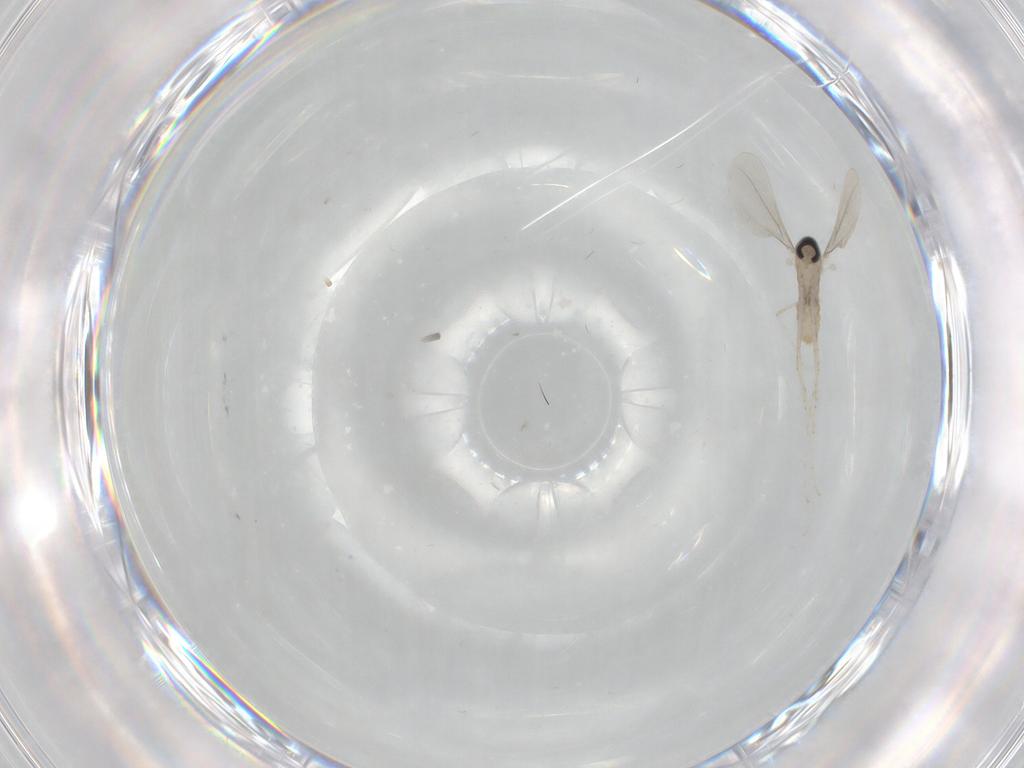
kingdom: Animalia
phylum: Arthropoda
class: Insecta
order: Diptera
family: Cecidomyiidae
